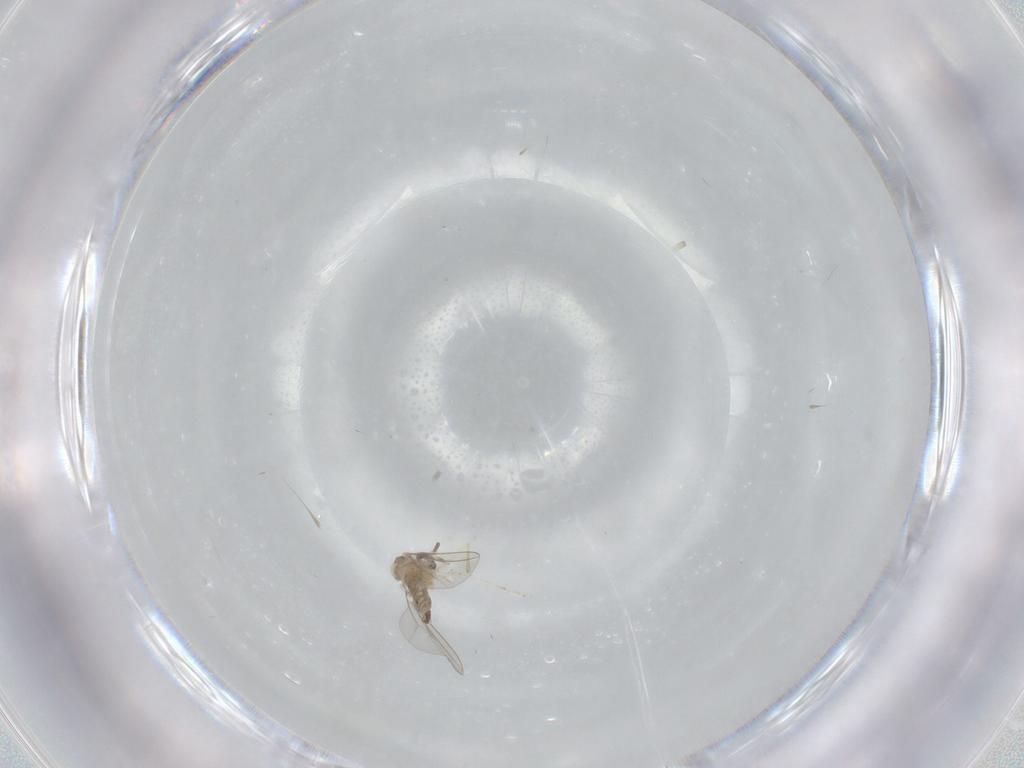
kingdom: Animalia
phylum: Arthropoda
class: Insecta
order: Diptera
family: Cecidomyiidae
